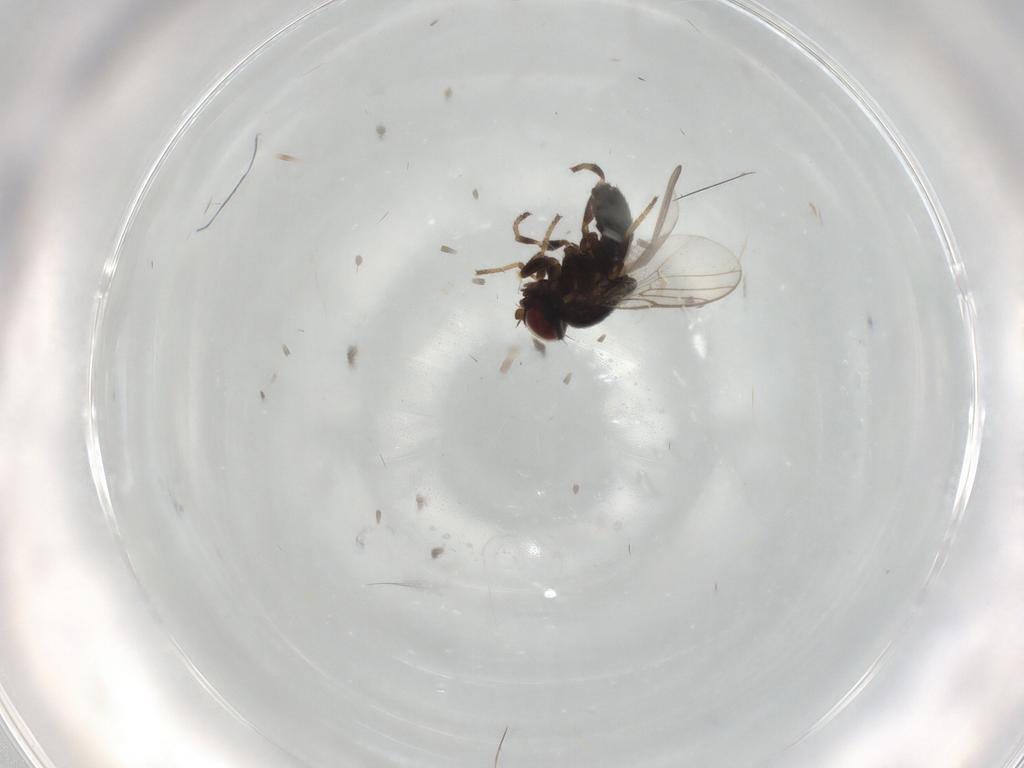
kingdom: Animalia
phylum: Arthropoda
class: Insecta
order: Diptera
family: Chloropidae
